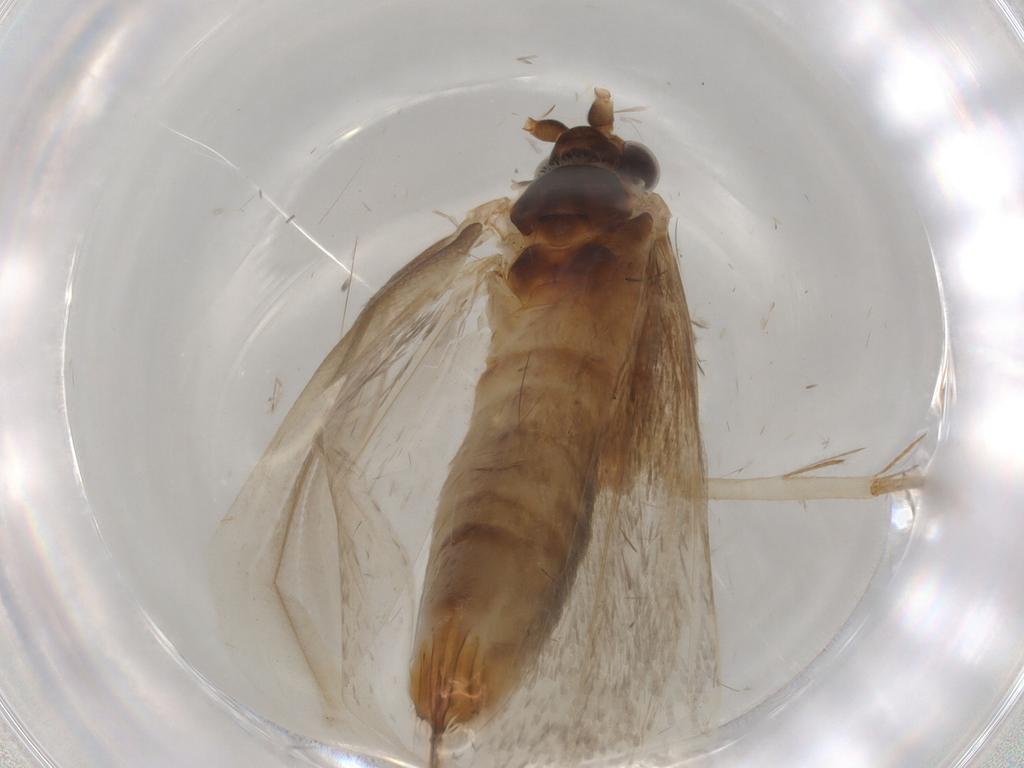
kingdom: Animalia
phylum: Arthropoda
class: Insecta
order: Lepidoptera
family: Adelidae
